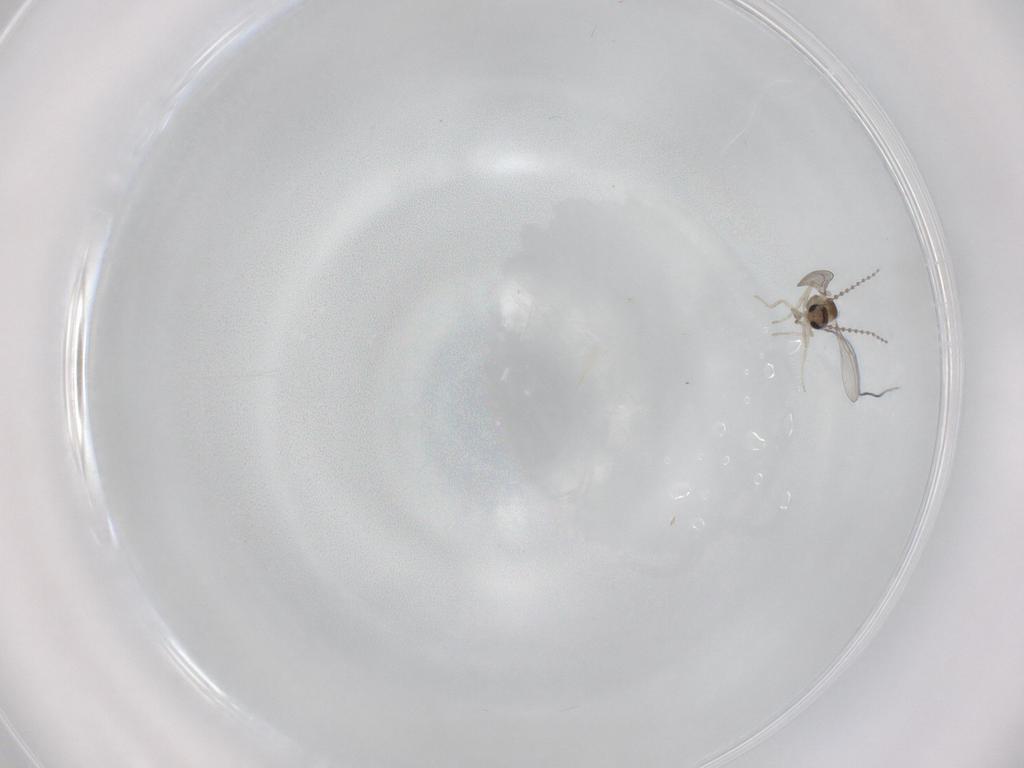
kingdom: Animalia
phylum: Arthropoda
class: Insecta
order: Diptera
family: Cecidomyiidae
